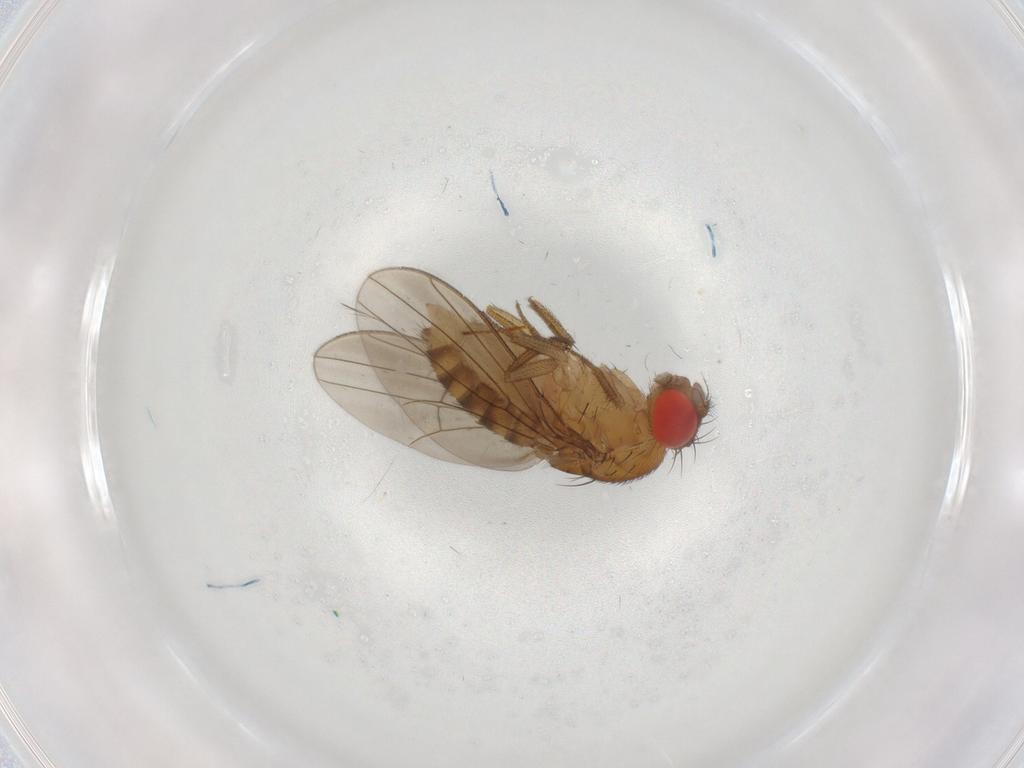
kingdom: Animalia
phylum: Arthropoda
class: Insecta
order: Diptera
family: Drosophilidae
